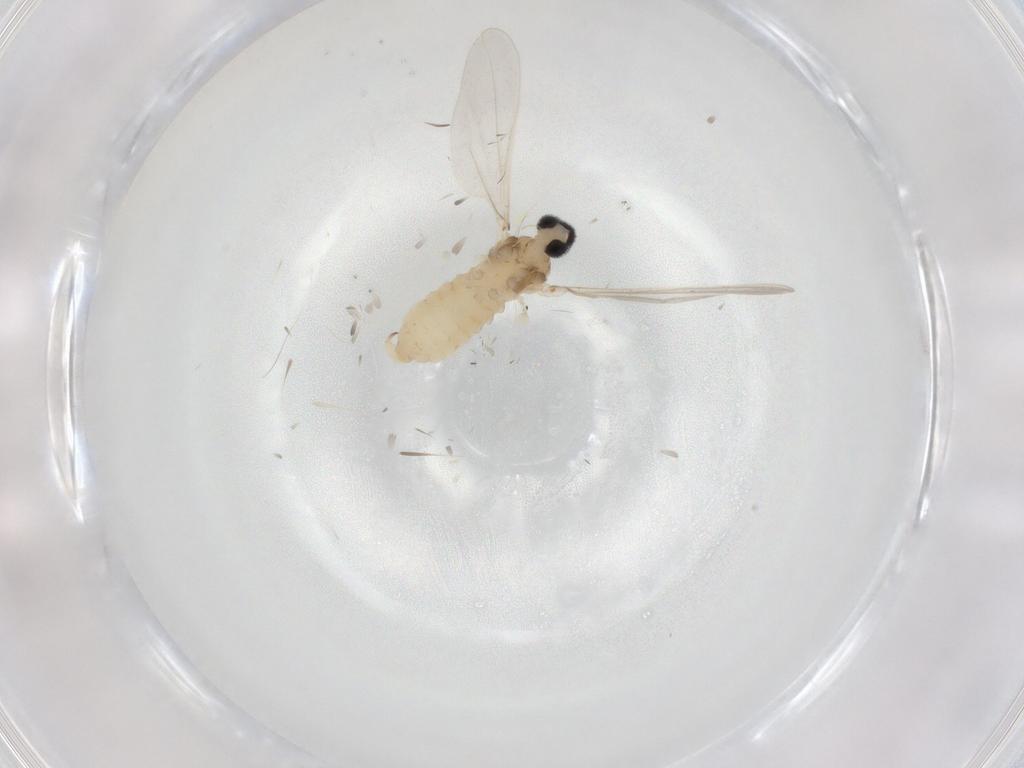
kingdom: Animalia
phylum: Arthropoda
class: Insecta
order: Diptera
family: Cecidomyiidae
